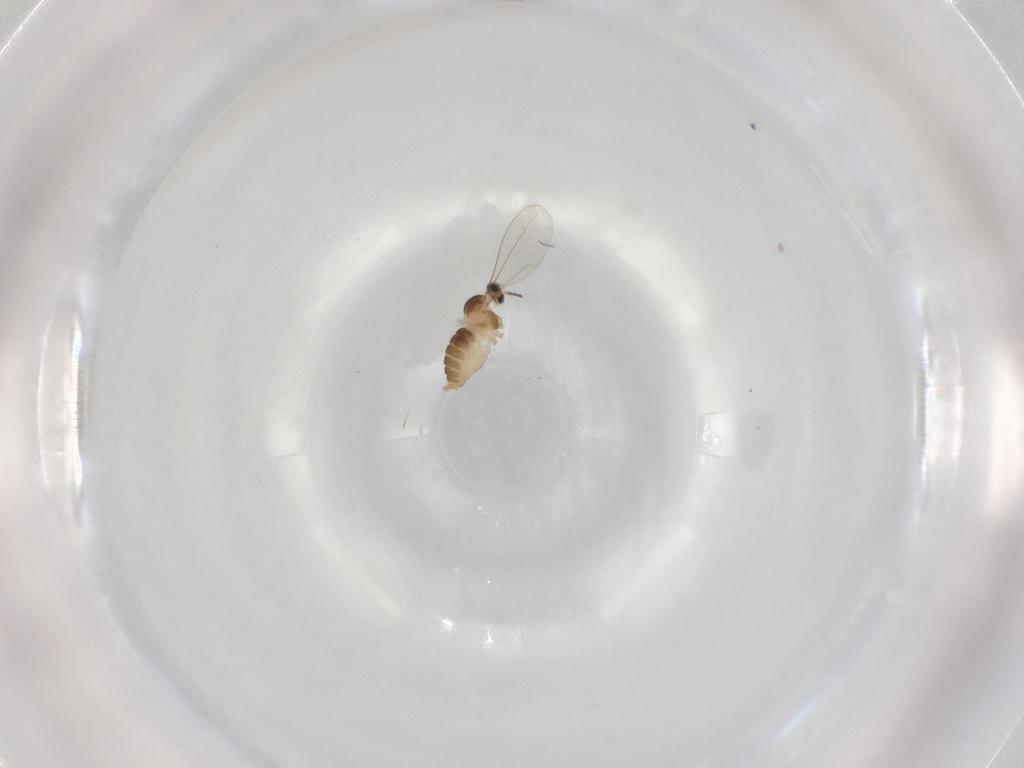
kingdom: Animalia
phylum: Arthropoda
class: Insecta
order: Diptera
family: Cecidomyiidae
